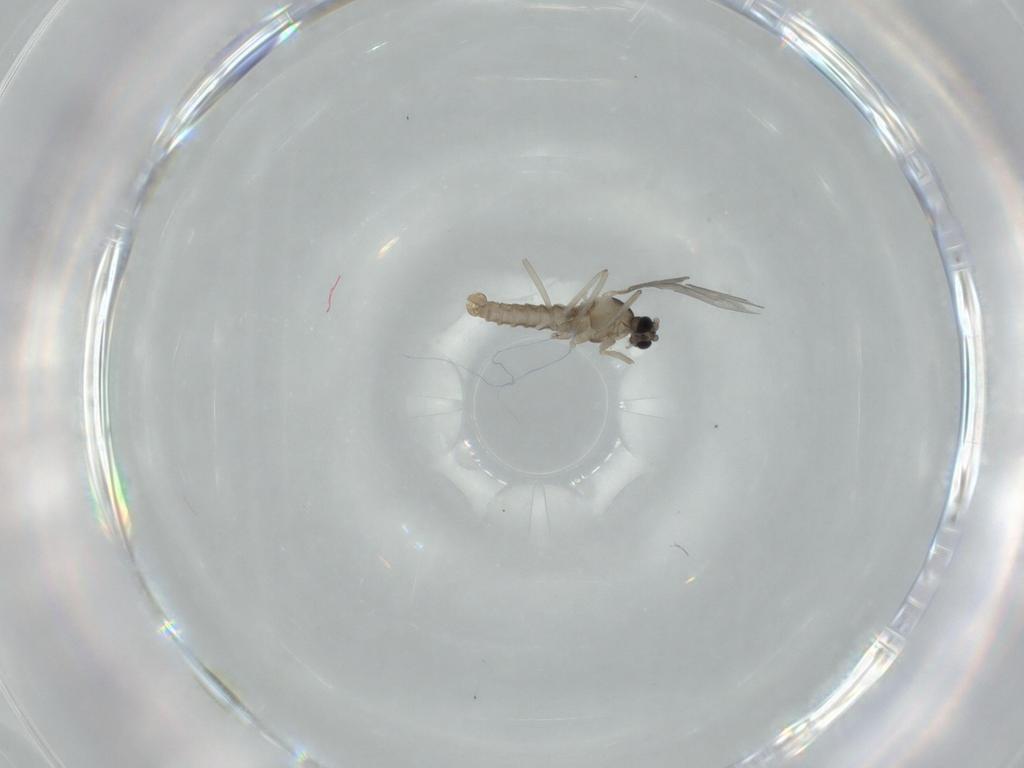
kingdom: Animalia
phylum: Arthropoda
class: Insecta
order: Diptera
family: Cecidomyiidae
